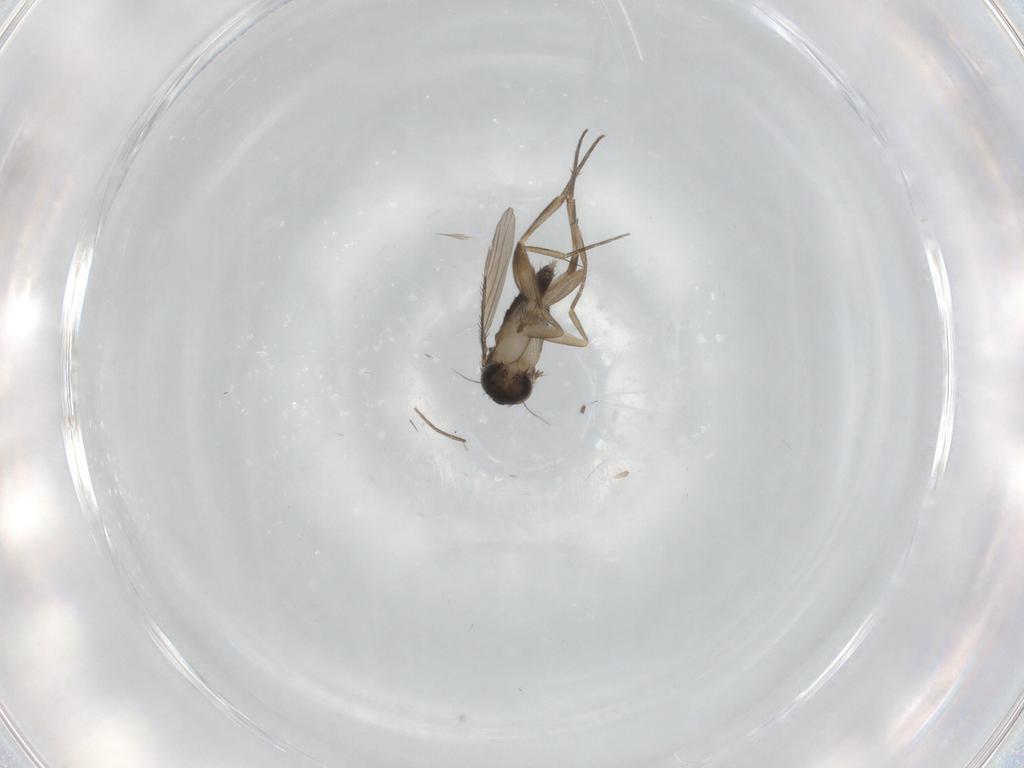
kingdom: Animalia
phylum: Arthropoda
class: Insecta
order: Diptera
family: Phoridae
